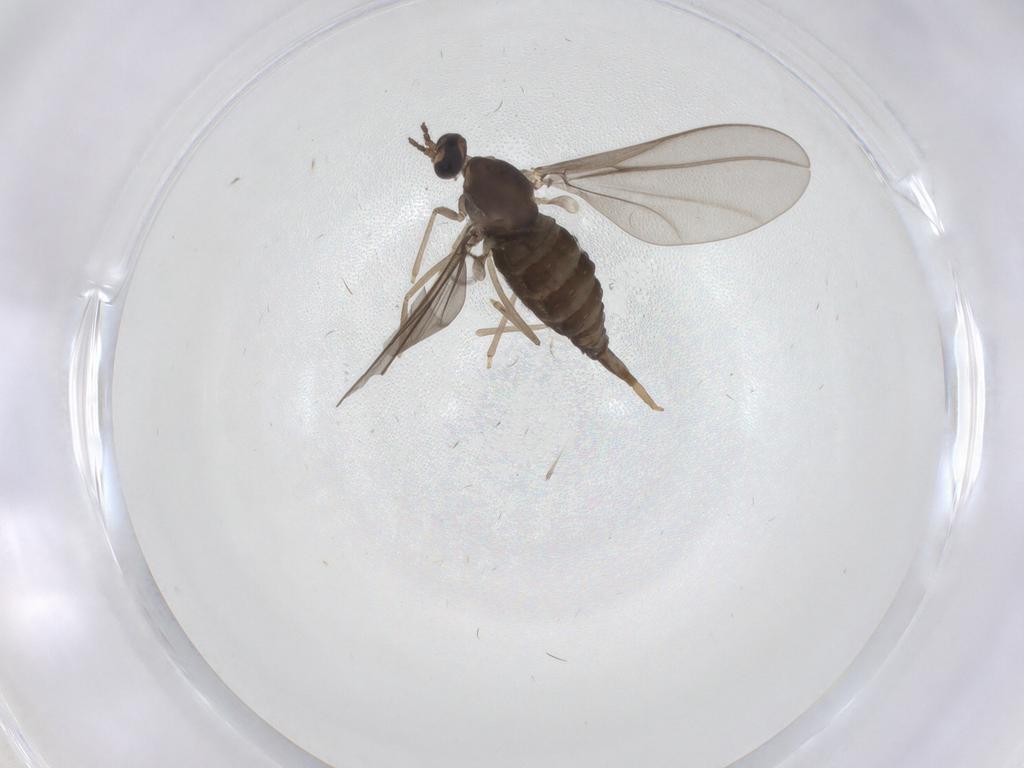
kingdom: Animalia
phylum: Arthropoda
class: Insecta
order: Diptera
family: Cecidomyiidae
